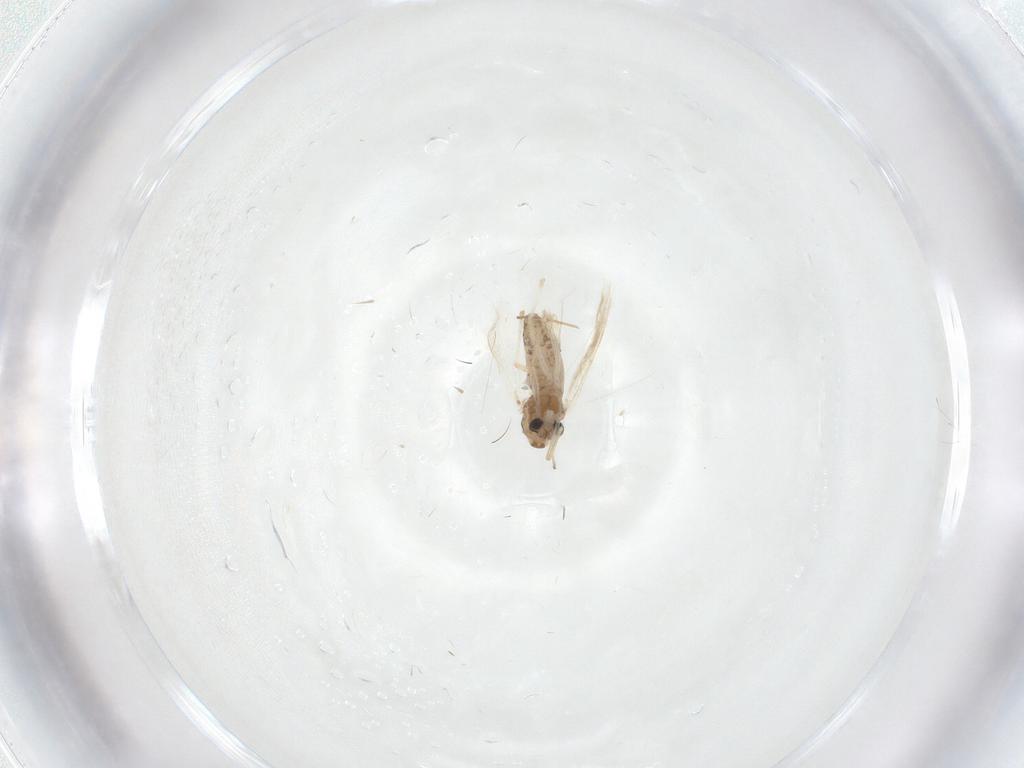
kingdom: Animalia
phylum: Arthropoda
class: Insecta
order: Diptera
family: Chironomidae
